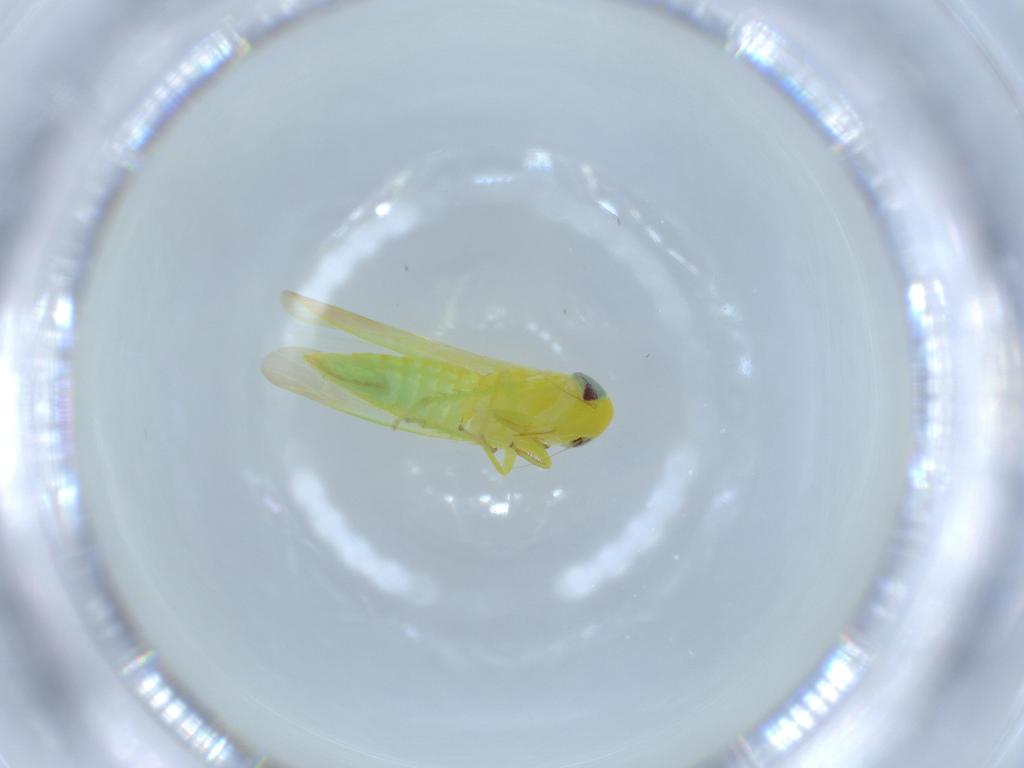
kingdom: Animalia
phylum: Arthropoda
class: Insecta
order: Hemiptera
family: Cicadellidae
